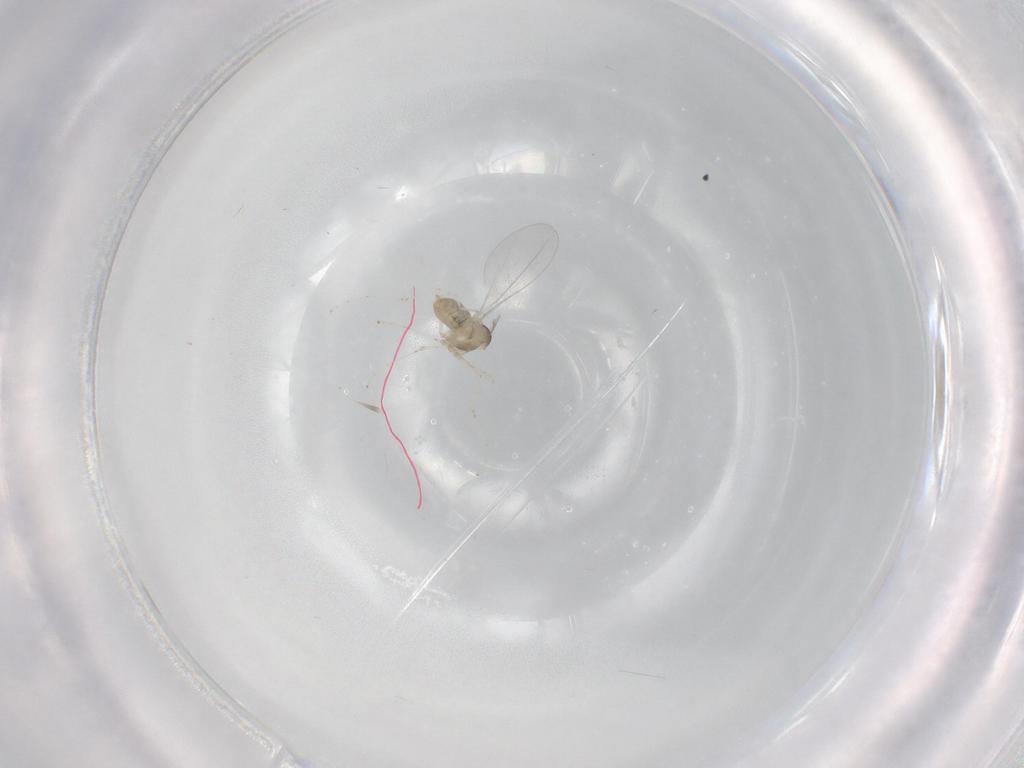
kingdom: Animalia
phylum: Arthropoda
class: Insecta
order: Diptera
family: Cecidomyiidae
